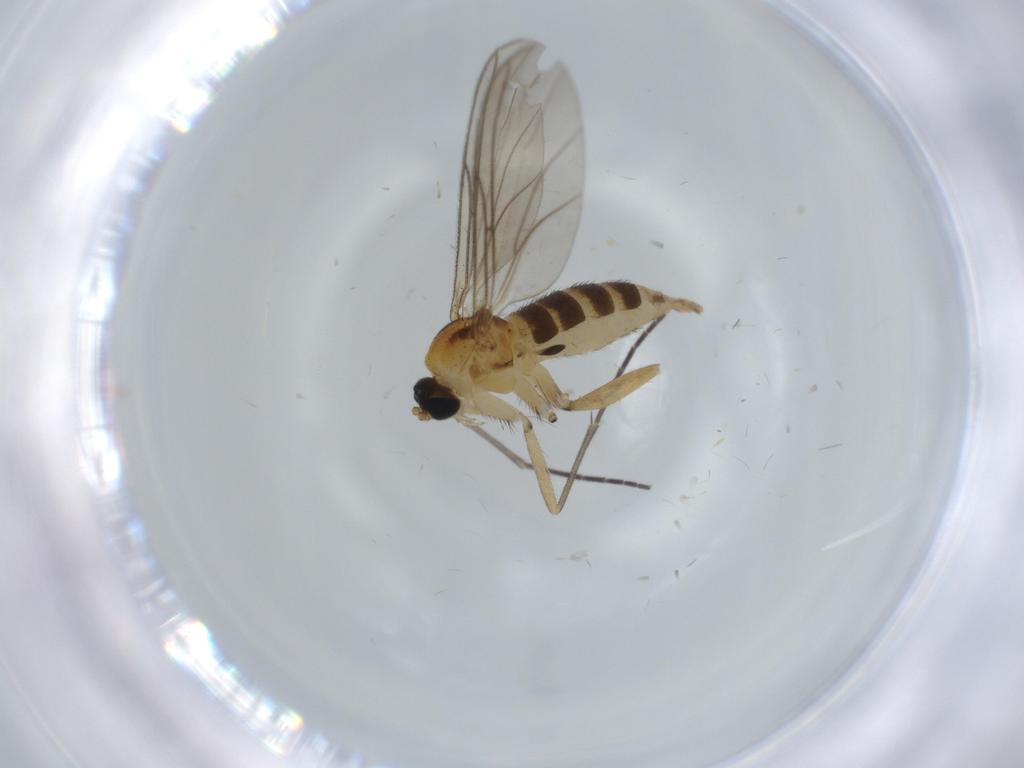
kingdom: Animalia
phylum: Arthropoda
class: Insecta
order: Diptera
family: Sciaridae
